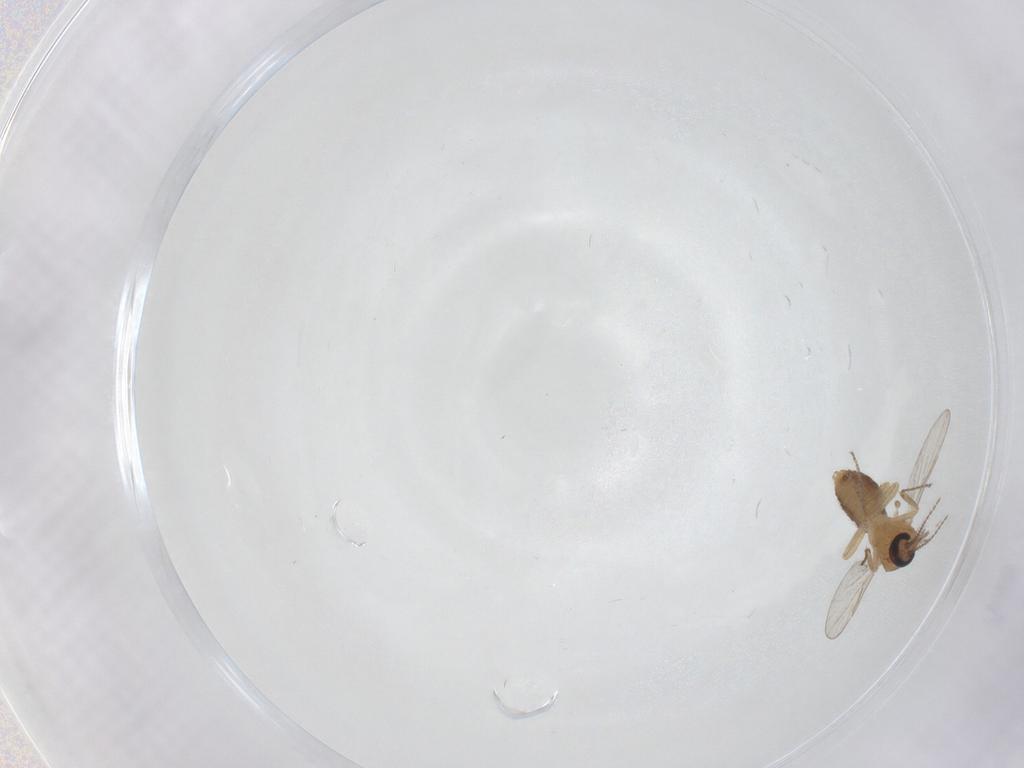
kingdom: Animalia
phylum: Arthropoda
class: Insecta
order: Diptera
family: Ceratopogonidae
